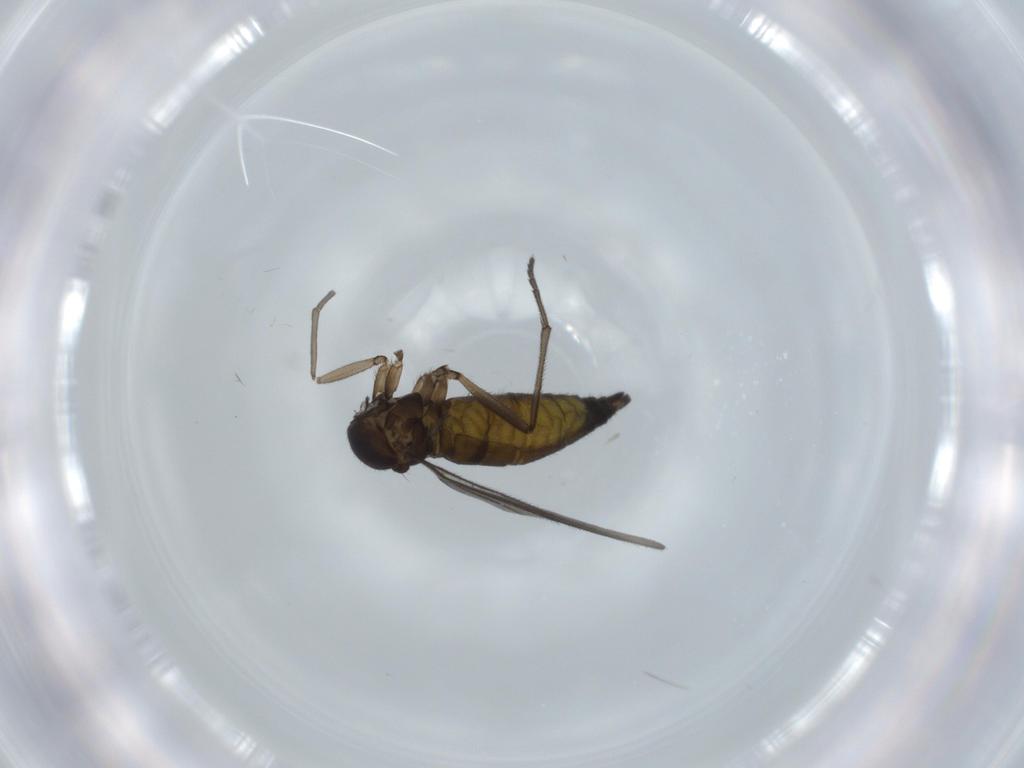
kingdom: Animalia
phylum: Arthropoda
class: Insecta
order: Diptera
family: Sciaridae
